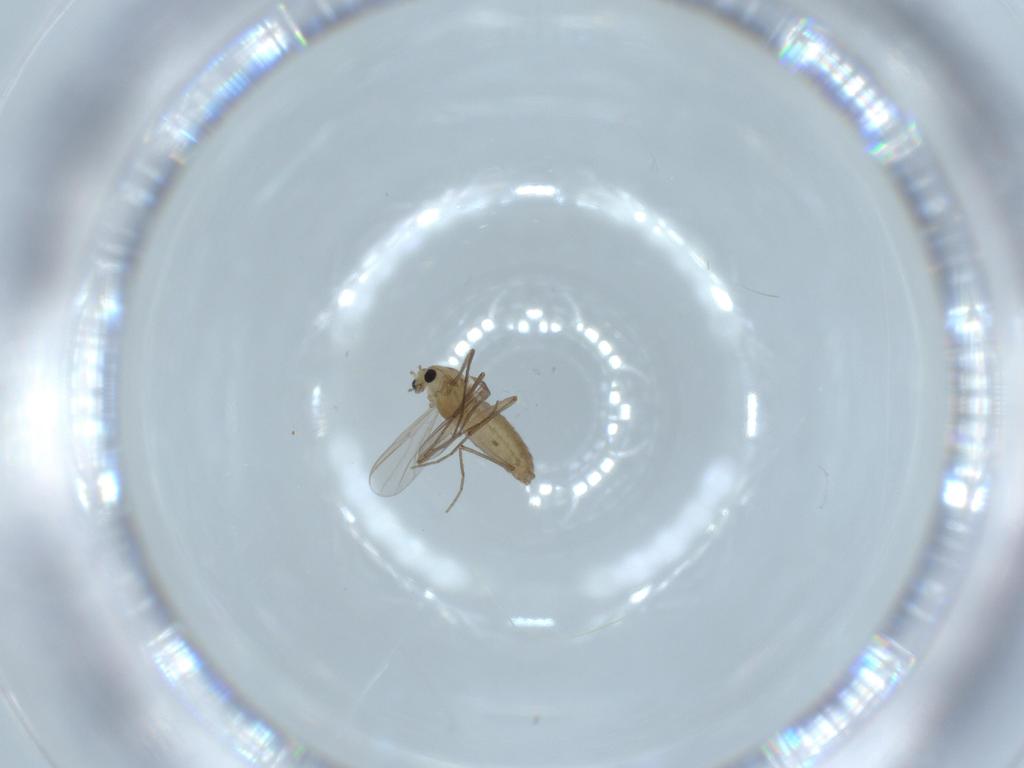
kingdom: Animalia
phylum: Arthropoda
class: Insecta
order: Diptera
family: Chironomidae
